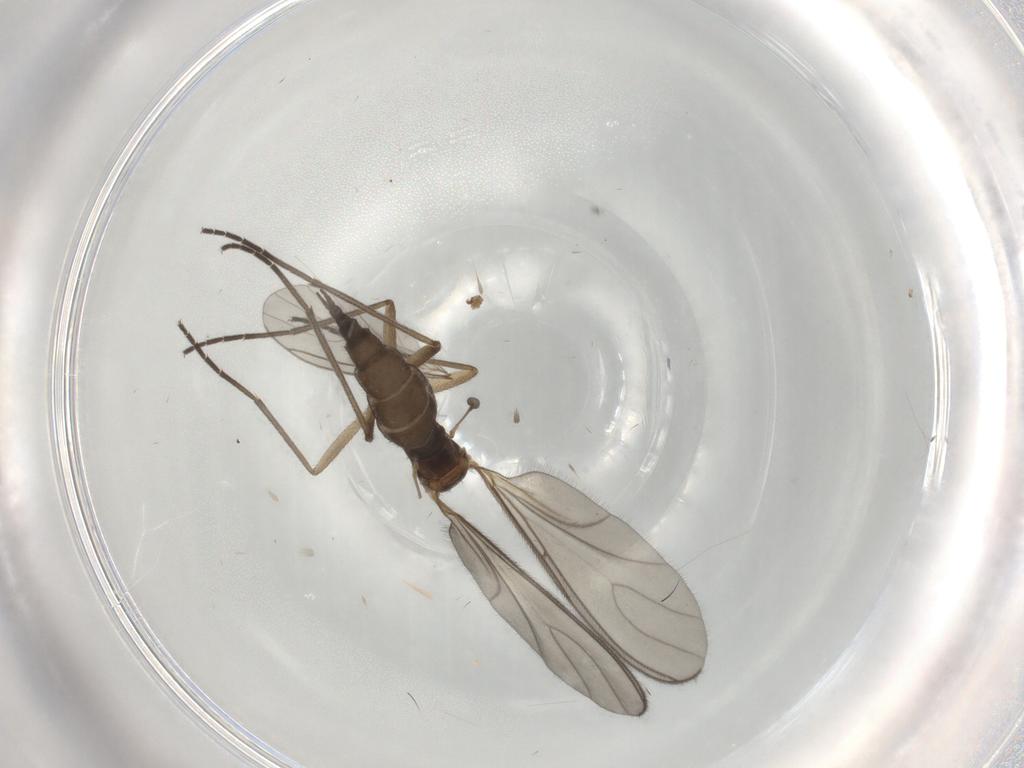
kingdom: Animalia
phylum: Arthropoda
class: Insecta
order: Diptera
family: Sciaridae
